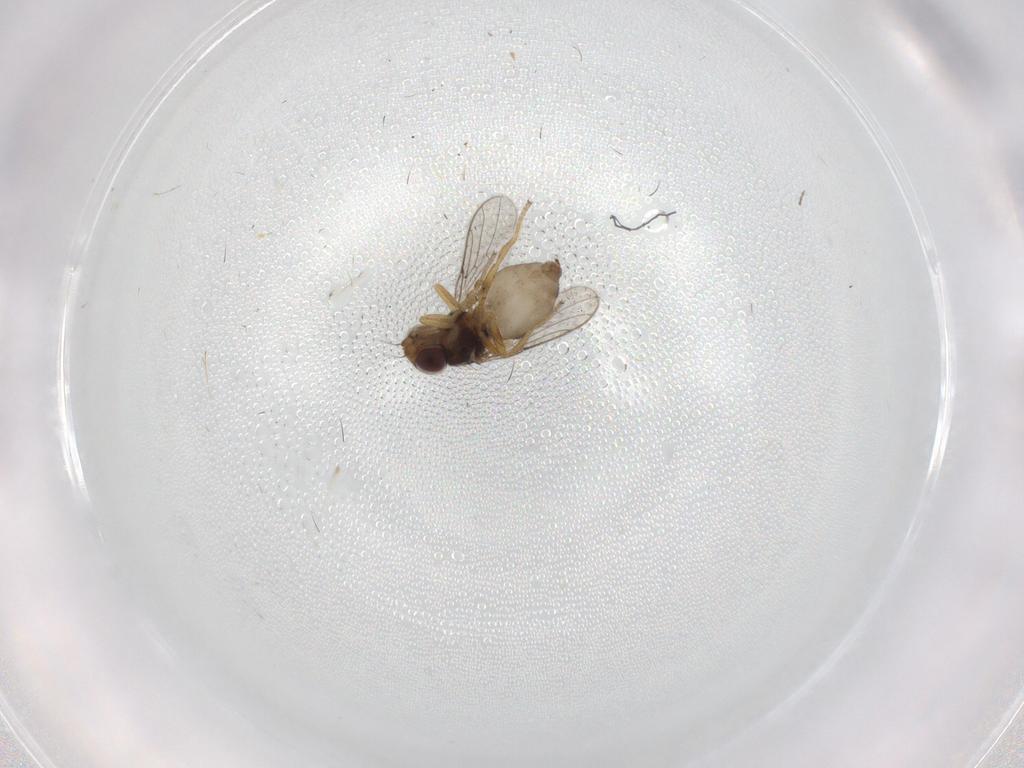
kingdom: Animalia
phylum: Arthropoda
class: Insecta
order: Diptera
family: Chloropidae
